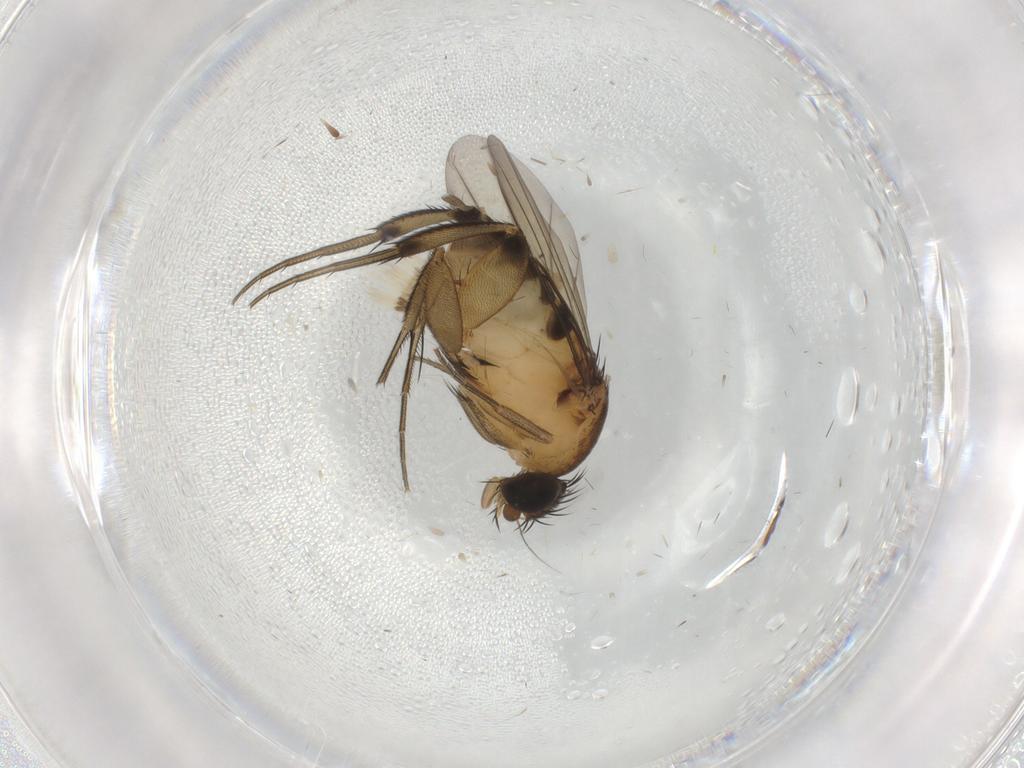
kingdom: Animalia
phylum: Arthropoda
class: Insecta
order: Diptera
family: Phoridae
